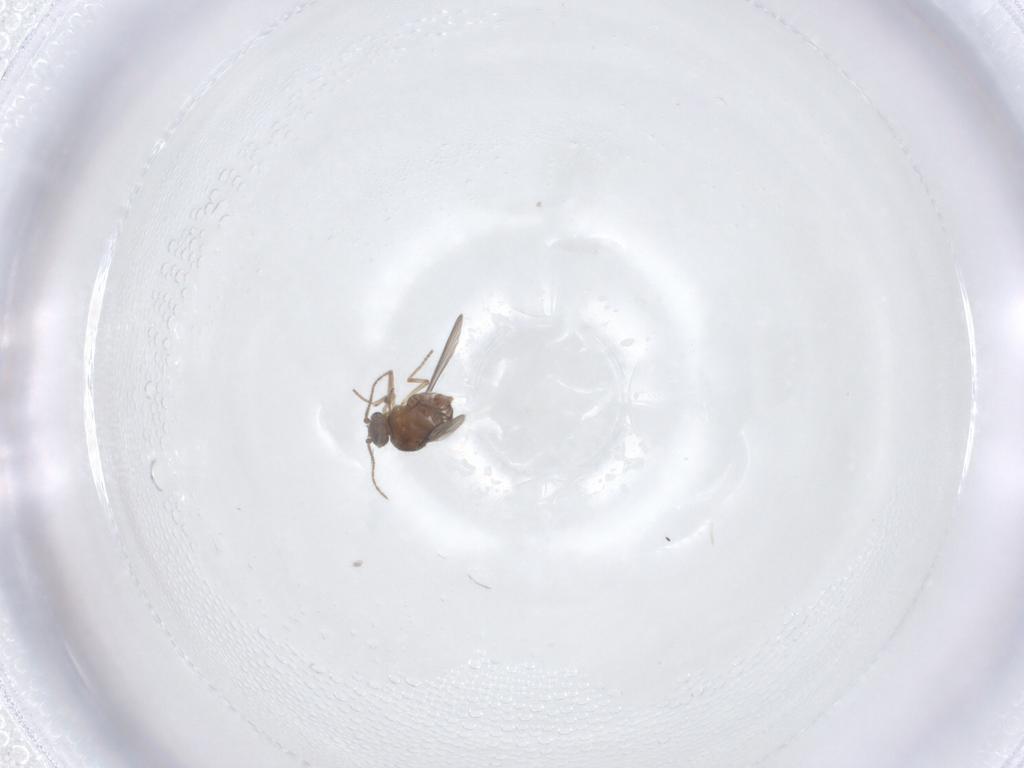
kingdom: Animalia
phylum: Arthropoda
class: Insecta
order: Diptera
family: Ceratopogonidae
